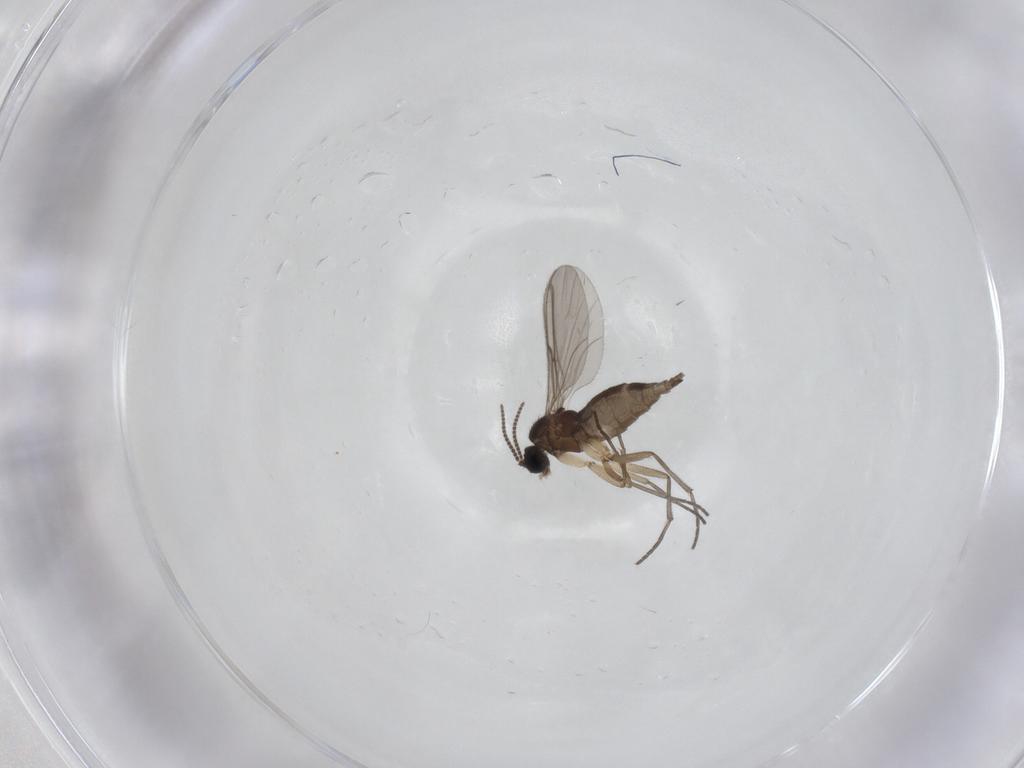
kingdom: Animalia
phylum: Arthropoda
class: Insecta
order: Diptera
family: Sciaridae
